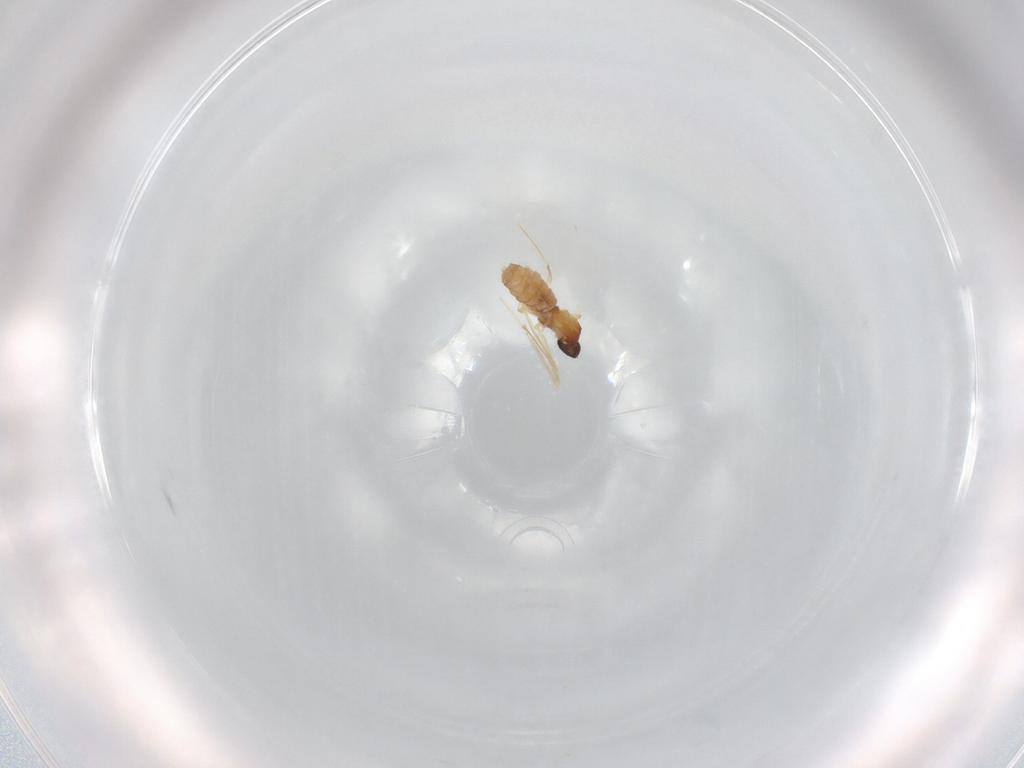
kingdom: Animalia
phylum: Arthropoda
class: Insecta
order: Diptera
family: Cecidomyiidae
